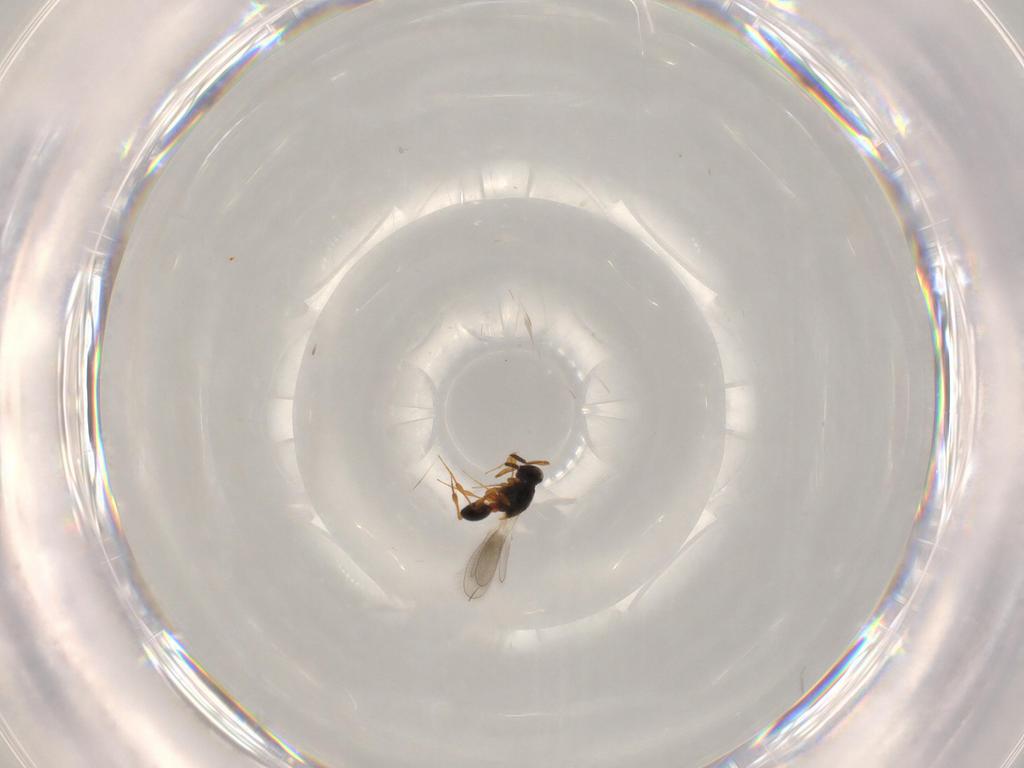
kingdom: Animalia
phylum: Arthropoda
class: Insecta
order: Hymenoptera
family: Platygastridae
